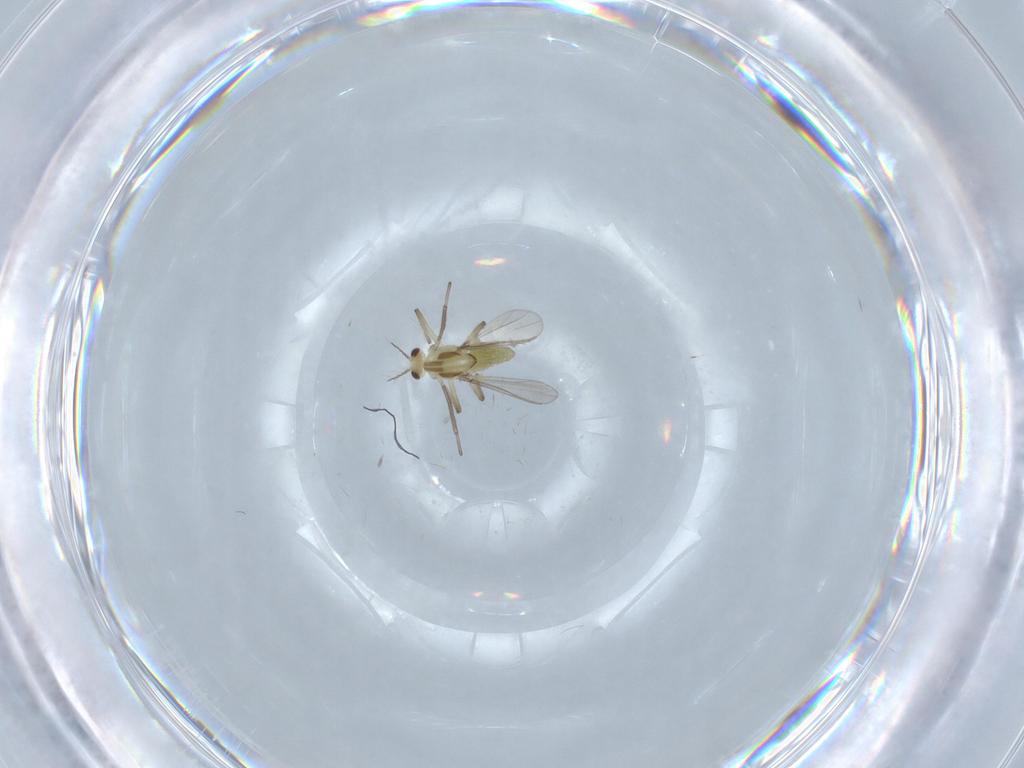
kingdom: Animalia
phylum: Arthropoda
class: Insecta
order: Diptera
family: Chironomidae
